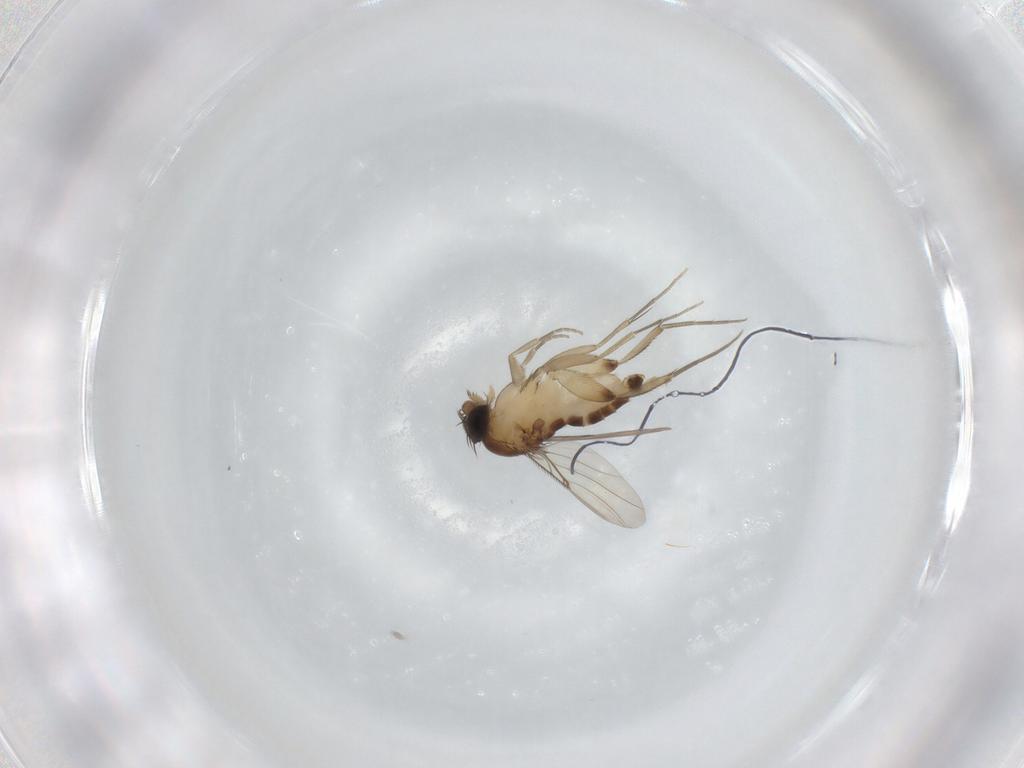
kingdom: Animalia
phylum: Arthropoda
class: Insecta
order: Diptera
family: Phoridae
